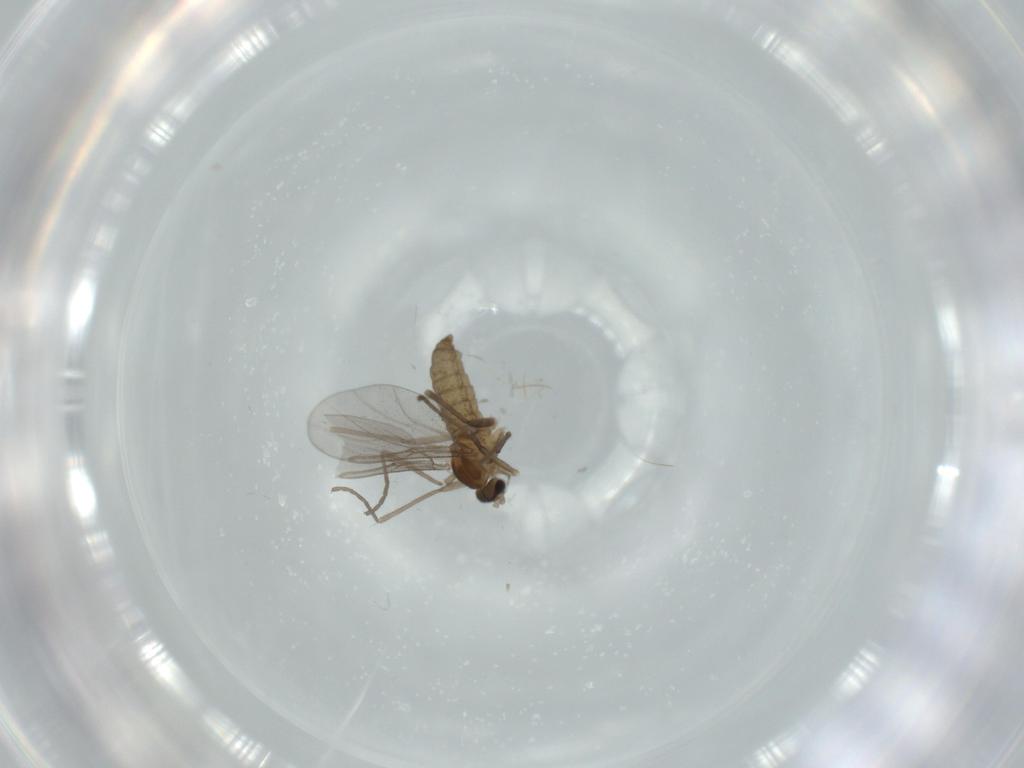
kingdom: Animalia
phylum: Arthropoda
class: Insecta
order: Diptera
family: Cecidomyiidae
